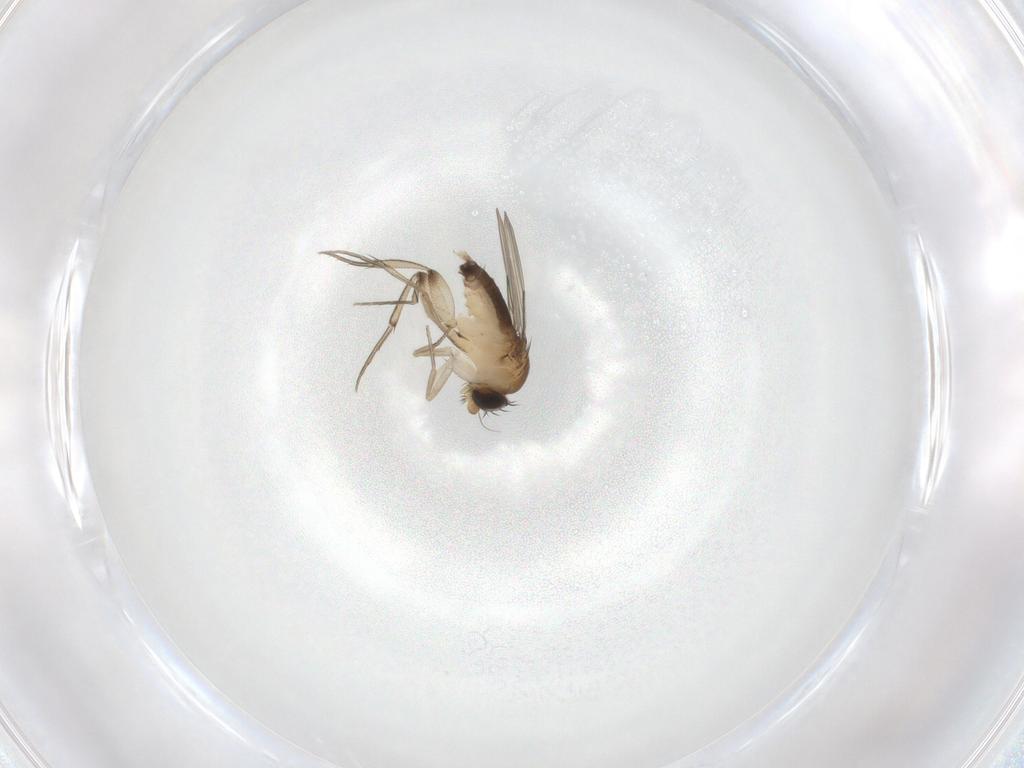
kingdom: Animalia
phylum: Arthropoda
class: Insecta
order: Diptera
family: Phoridae
